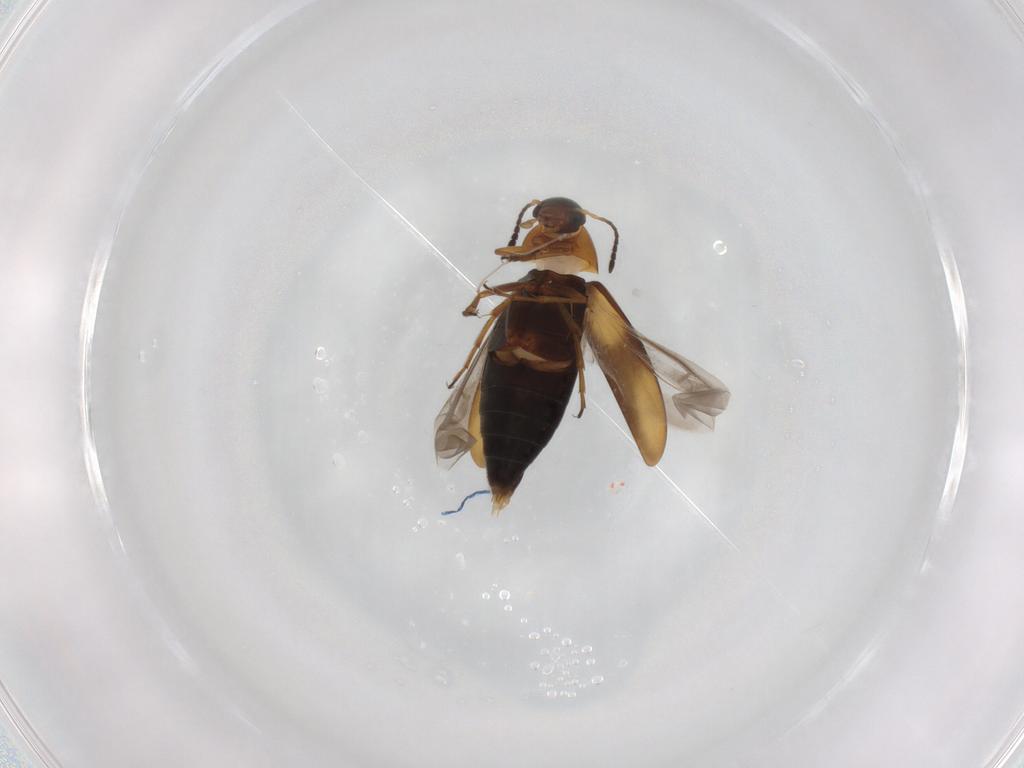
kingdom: Animalia
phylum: Arthropoda
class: Insecta
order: Coleoptera
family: Scraptiidae
